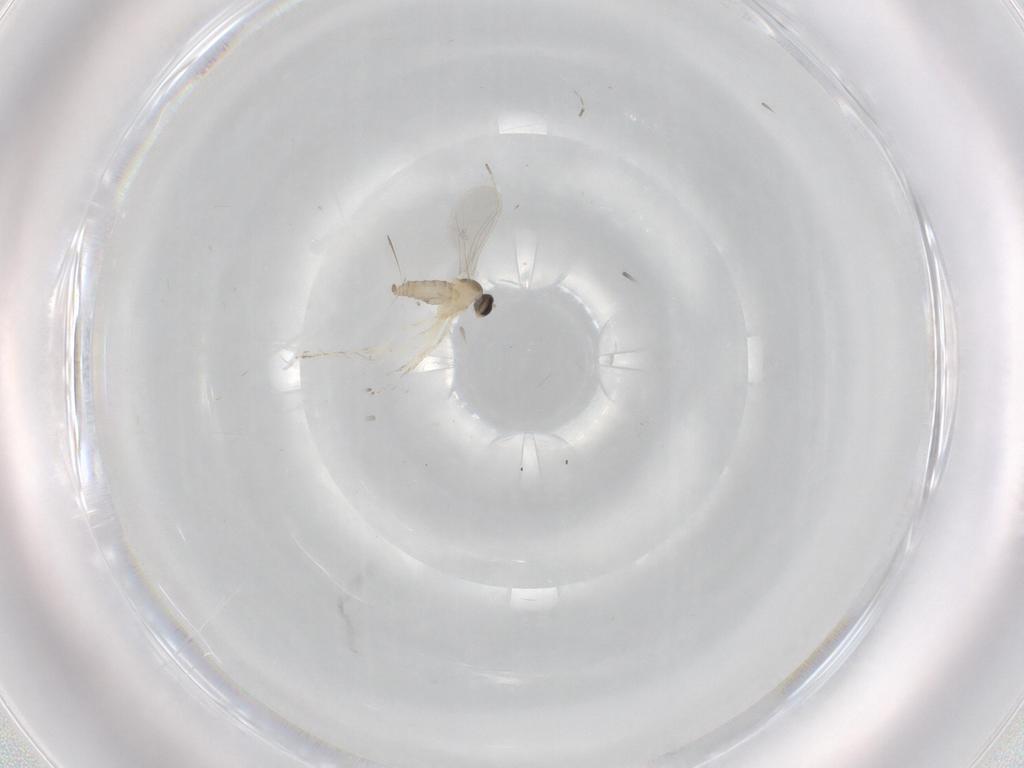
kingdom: Animalia
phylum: Arthropoda
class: Insecta
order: Diptera
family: Cecidomyiidae
